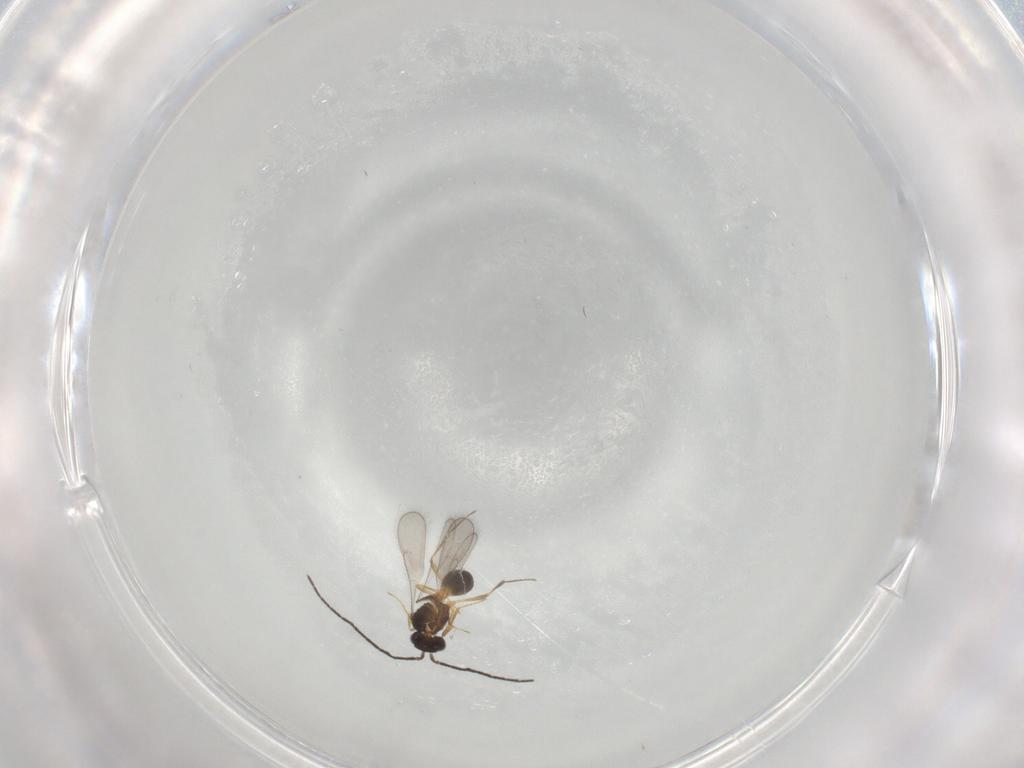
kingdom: Animalia
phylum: Arthropoda
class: Insecta
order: Hymenoptera
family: Scelionidae
